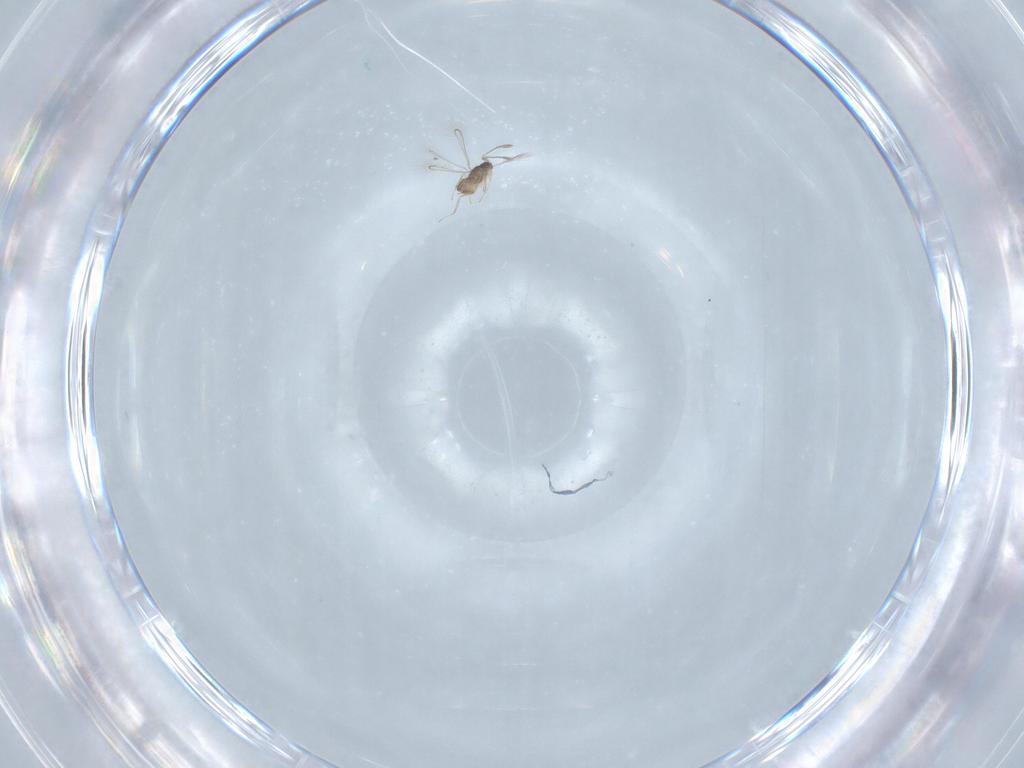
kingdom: Animalia
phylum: Arthropoda
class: Insecta
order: Hymenoptera
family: Mymaridae
